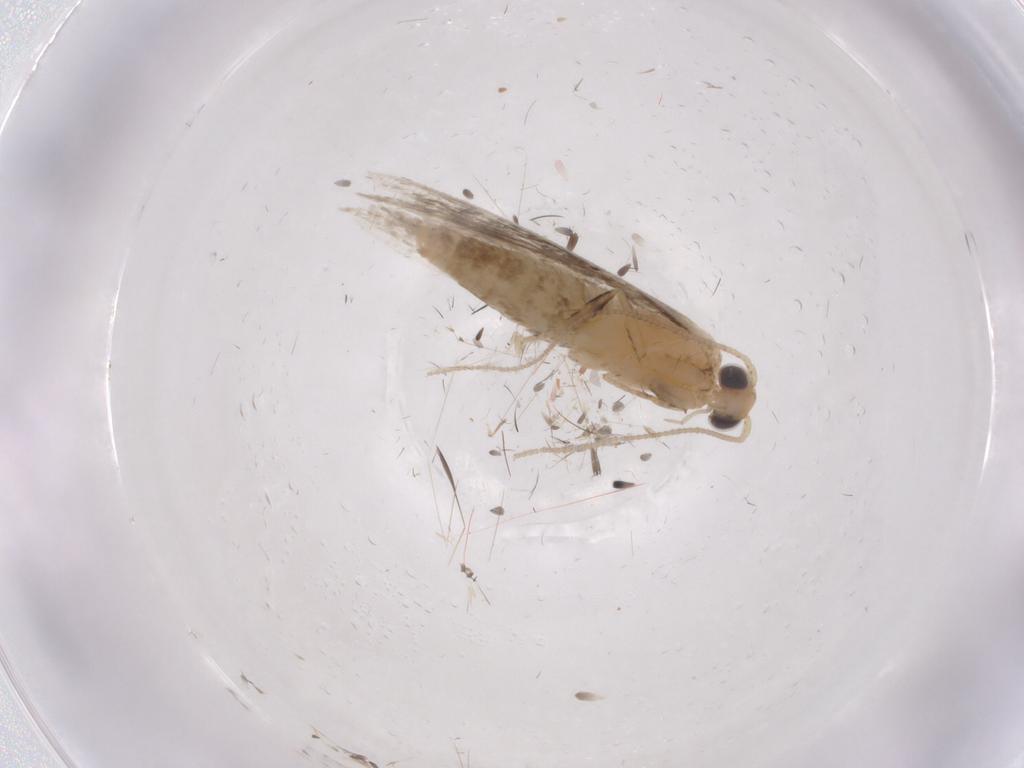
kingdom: Animalia
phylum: Arthropoda
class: Insecta
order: Lepidoptera
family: Tineidae
